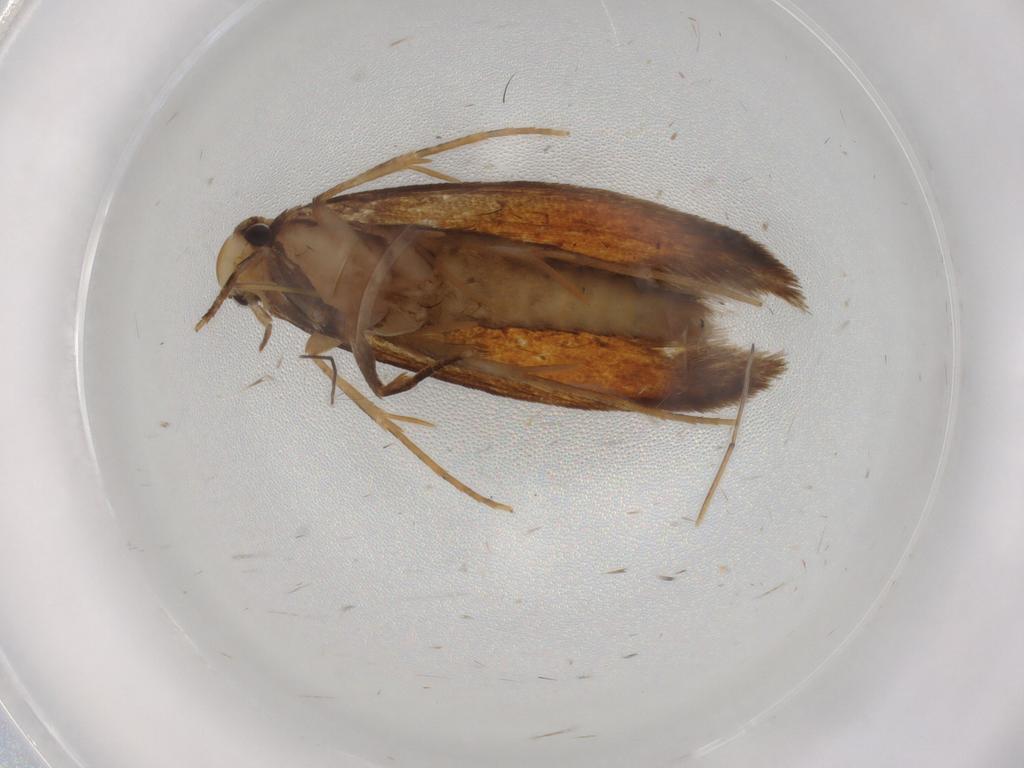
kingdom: Animalia
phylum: Arthropoda
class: Insecta
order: Lepidoptera
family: Tineidae
